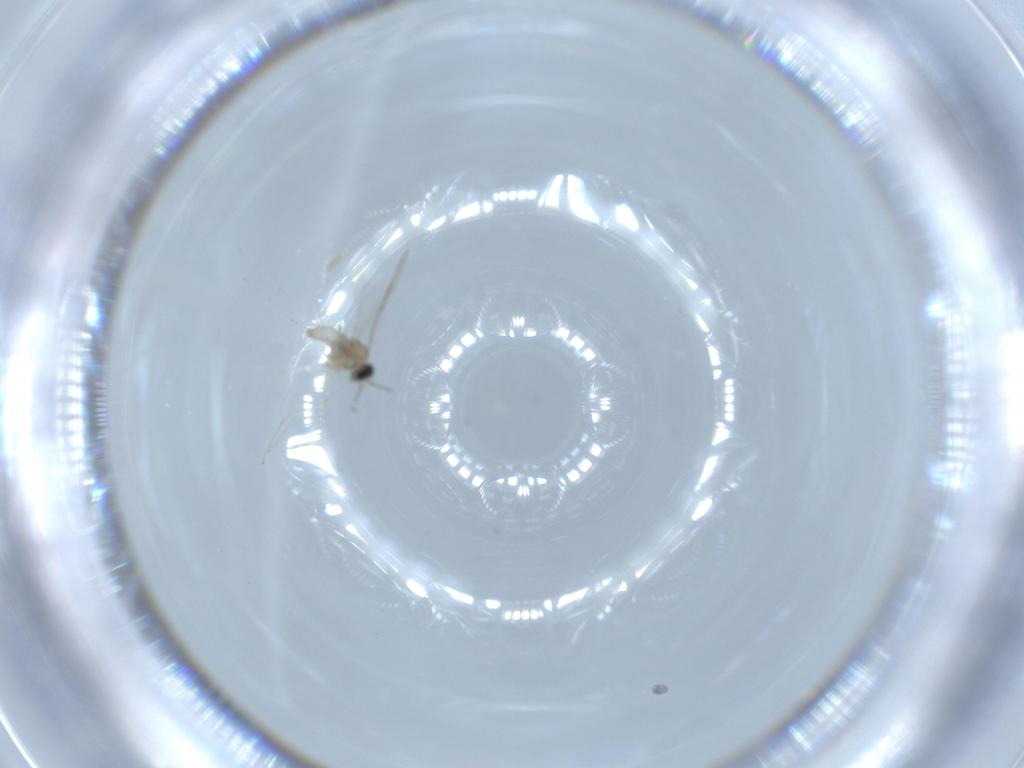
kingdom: Animalia
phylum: Arthropoda
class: Insecta
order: Diptera
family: Cecidomyiidae
